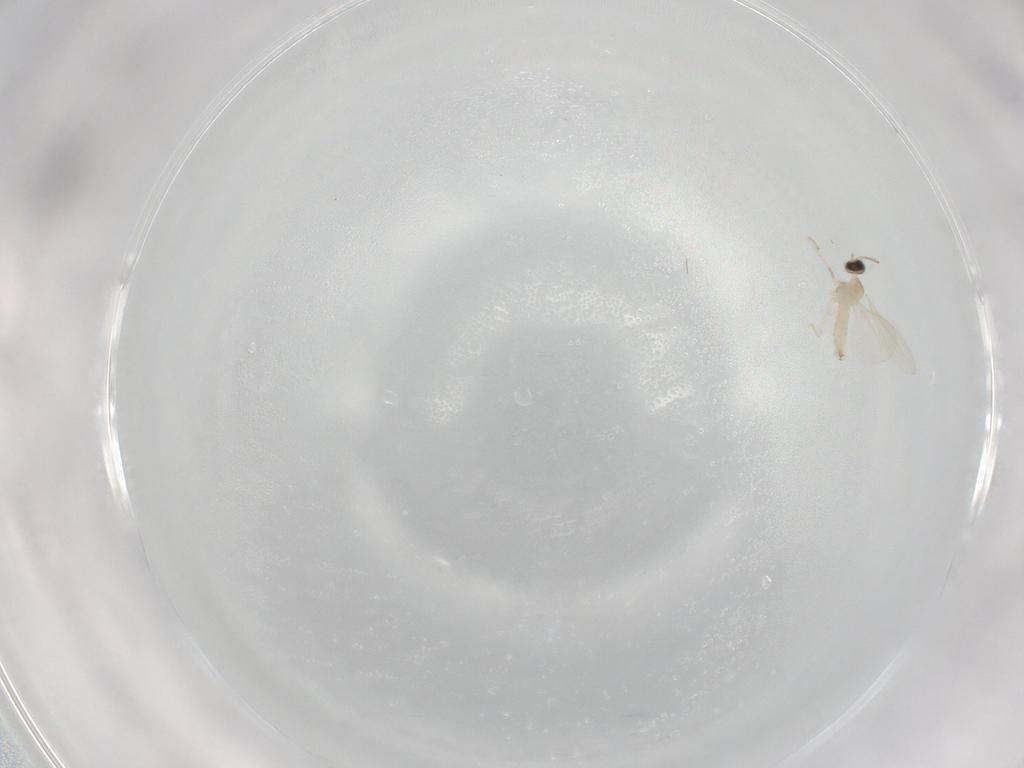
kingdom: Animalia
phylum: Arthropoda
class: Insecta
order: Diptera
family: Cecidomyiidae
